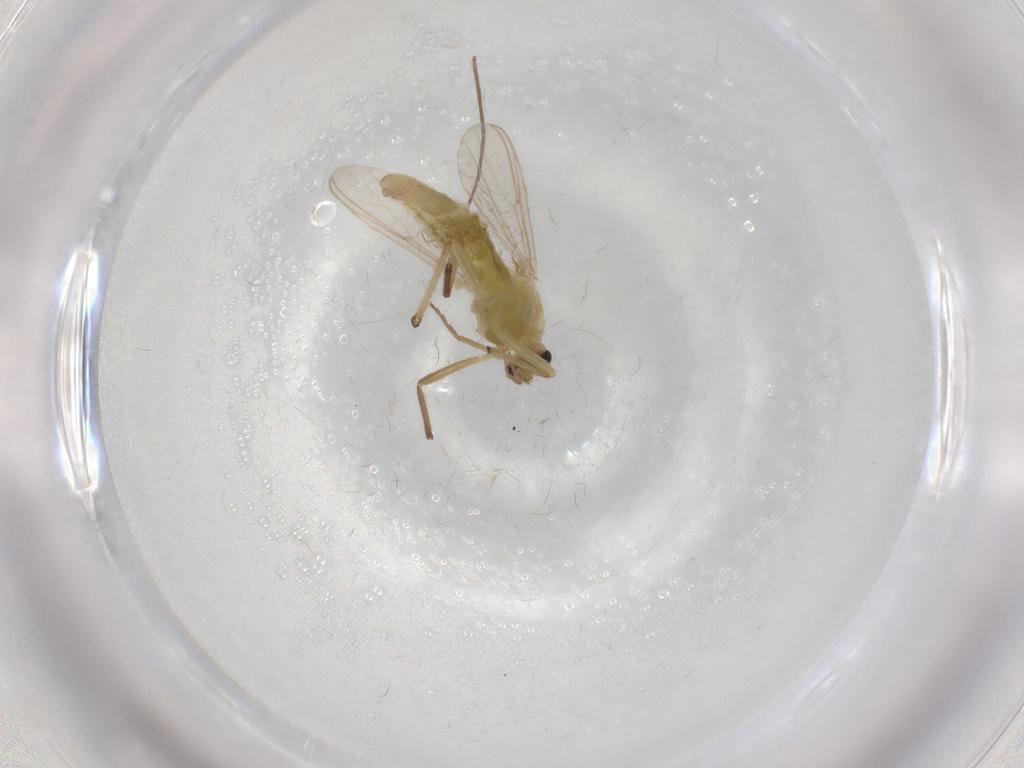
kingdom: Animalia
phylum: Arthropoda
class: Insecta
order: Diptera
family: Chironomidae
